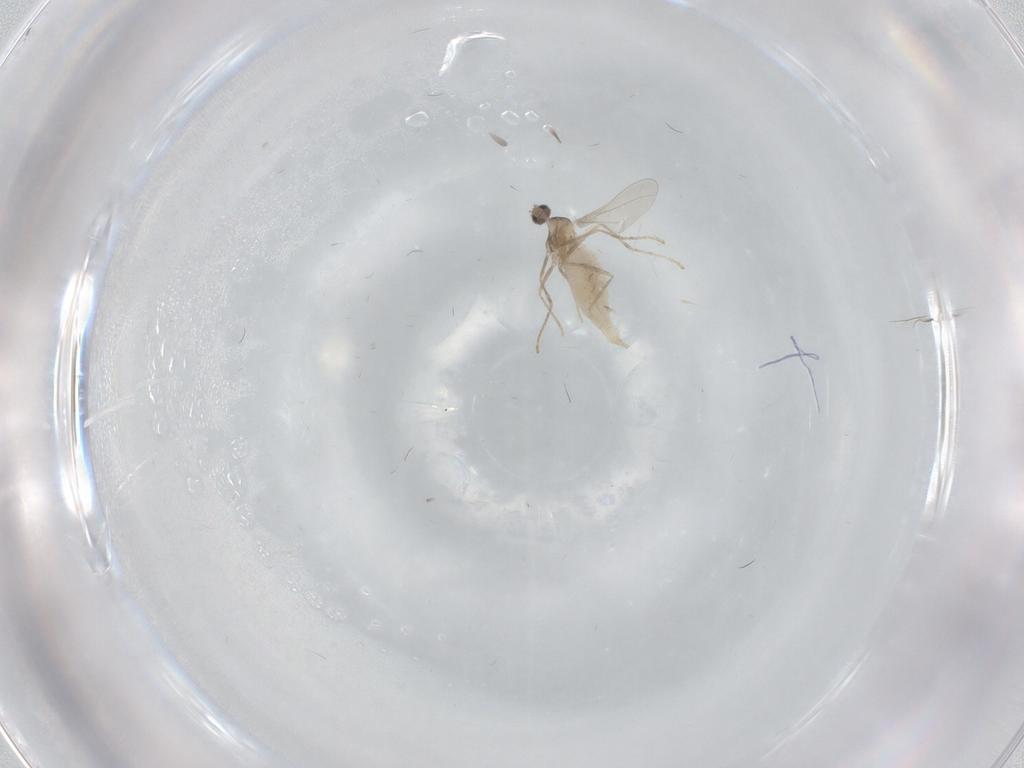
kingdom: Animalia
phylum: Arthropoda
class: Insecta
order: Diptera
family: Cecidomyiidae
